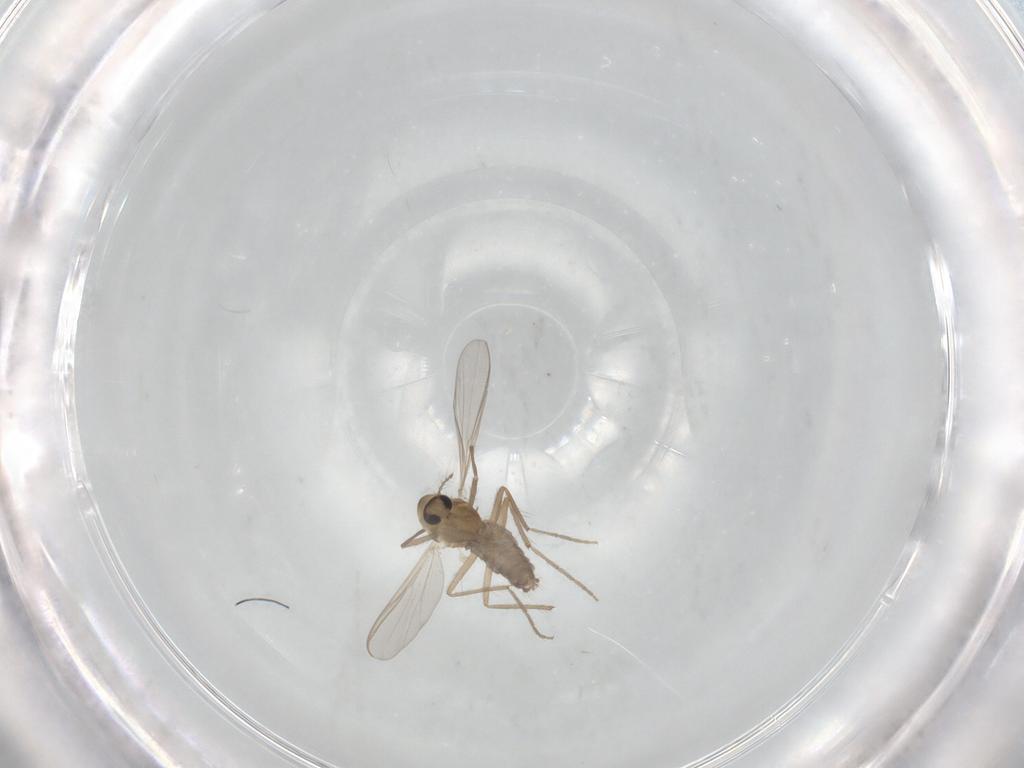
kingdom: Animalia
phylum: Arthropoda
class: Insecta
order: Diptera
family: Chironomidae
